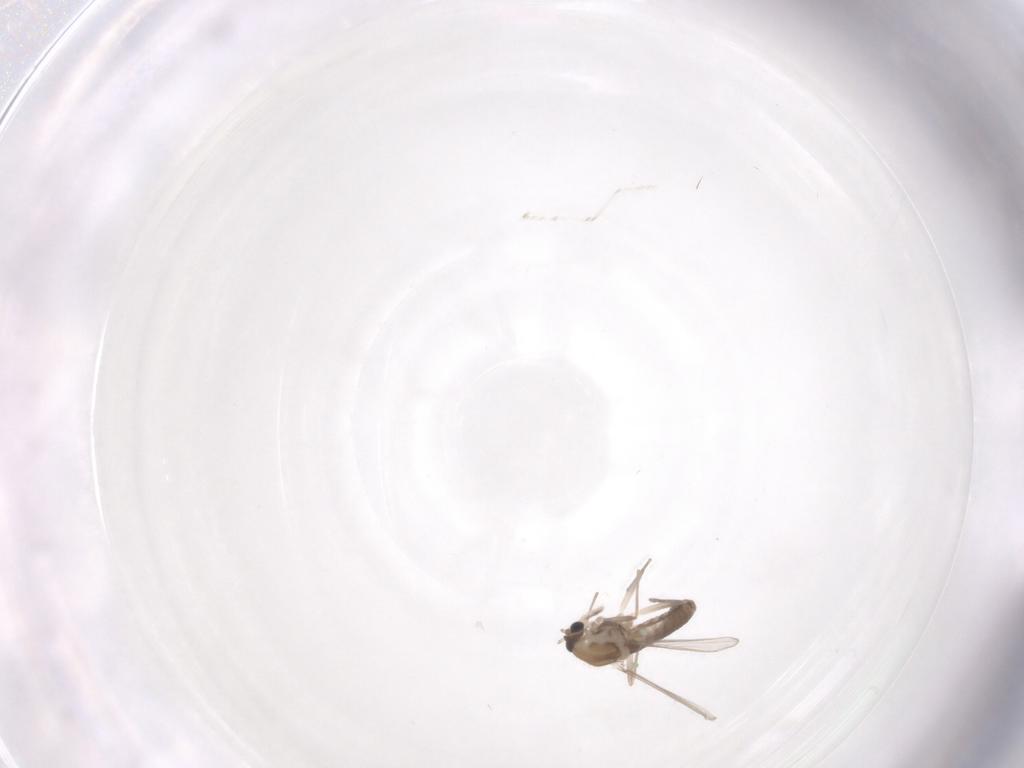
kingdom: Animalia
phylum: Arthropoda
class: Insecta
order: Diptera
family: Chironomidae
